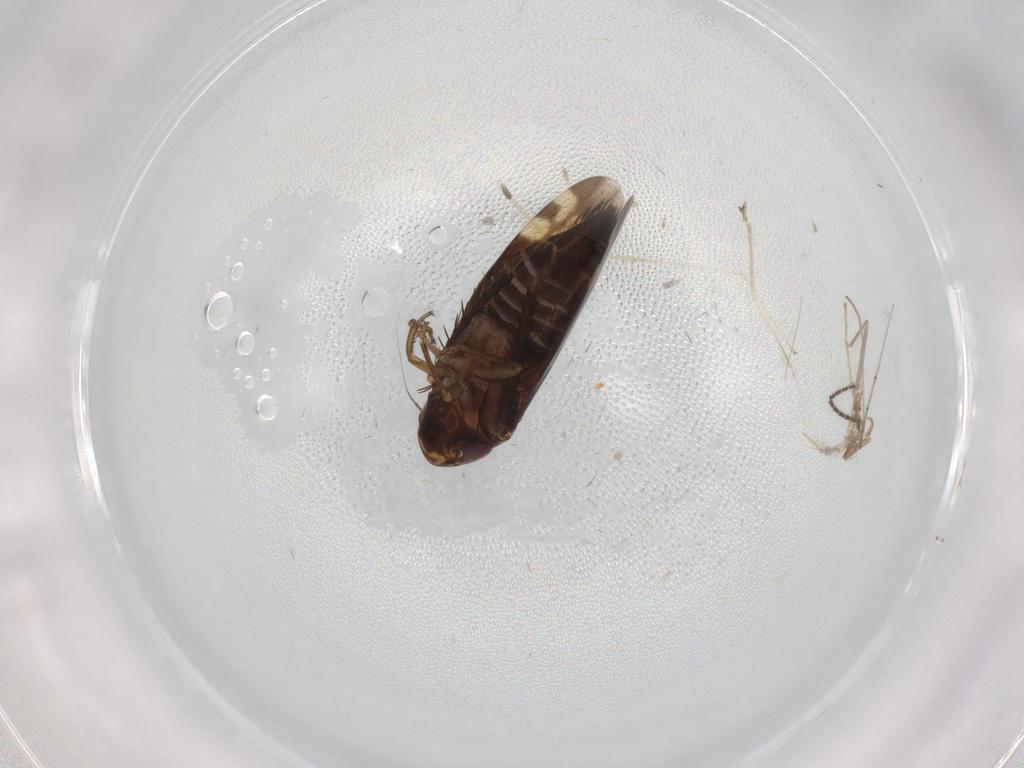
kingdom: Animalia
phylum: Arthropoda
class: Insecta
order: Hemiptera
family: Cicadellidae
